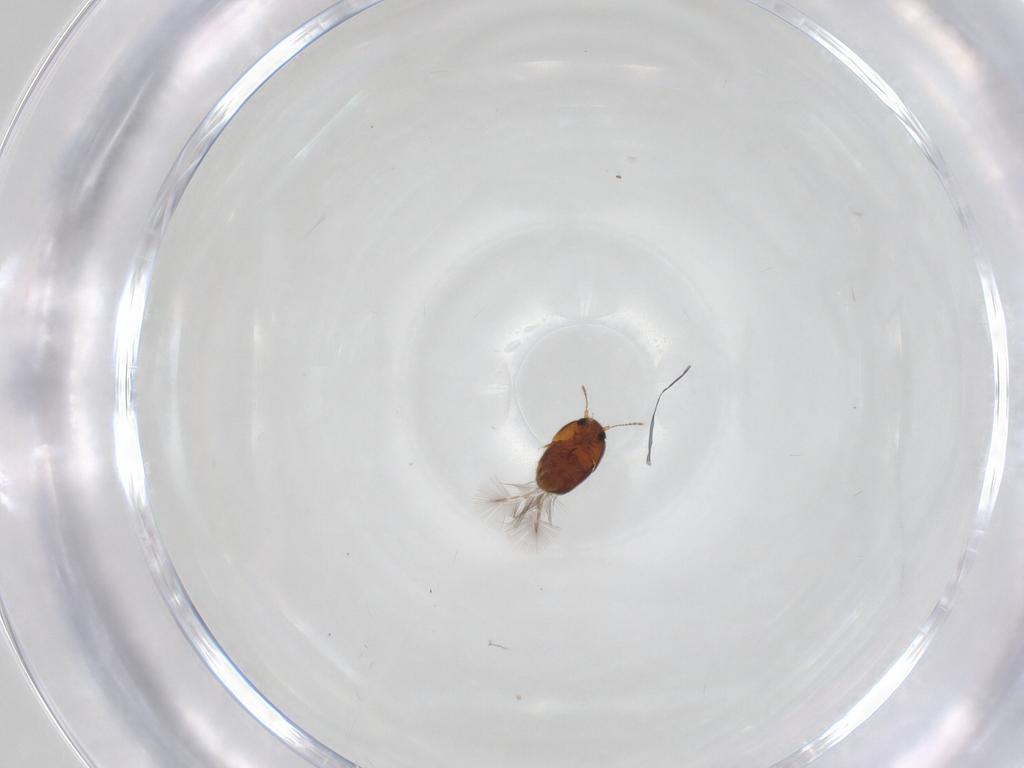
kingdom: Animalia
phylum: Arthropoda
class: Insecta
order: Coleoptera
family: Ptiliidae
